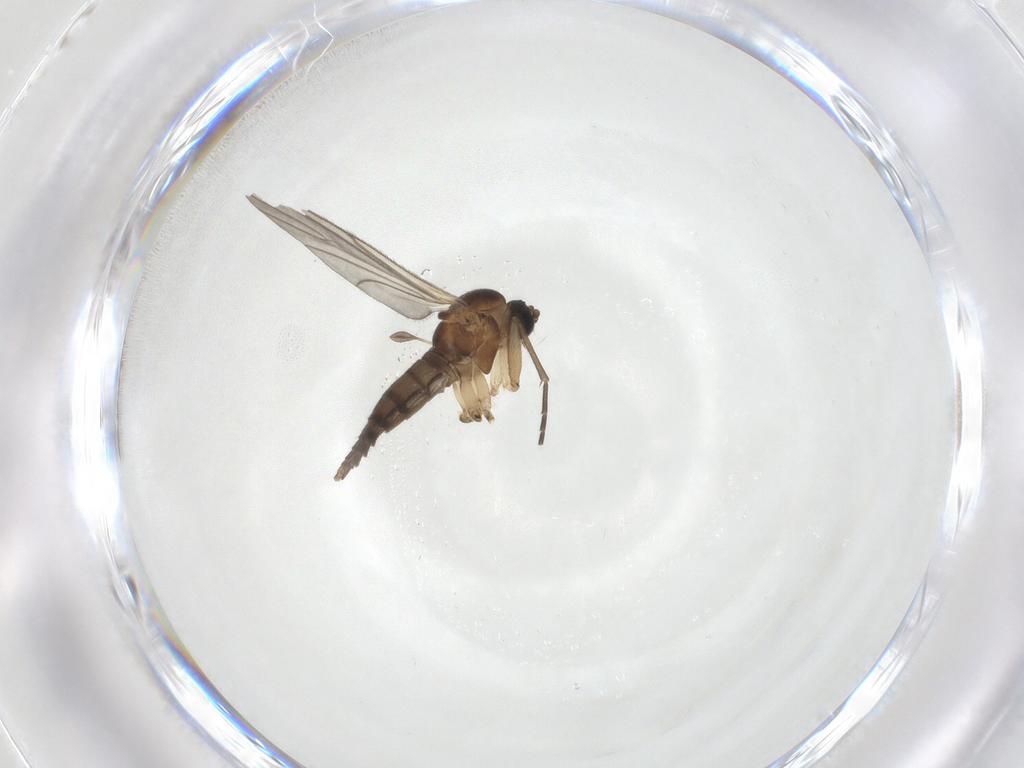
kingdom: Animalia
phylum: Arthropoda
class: Insecta
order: Diptera
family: Sciaridae
